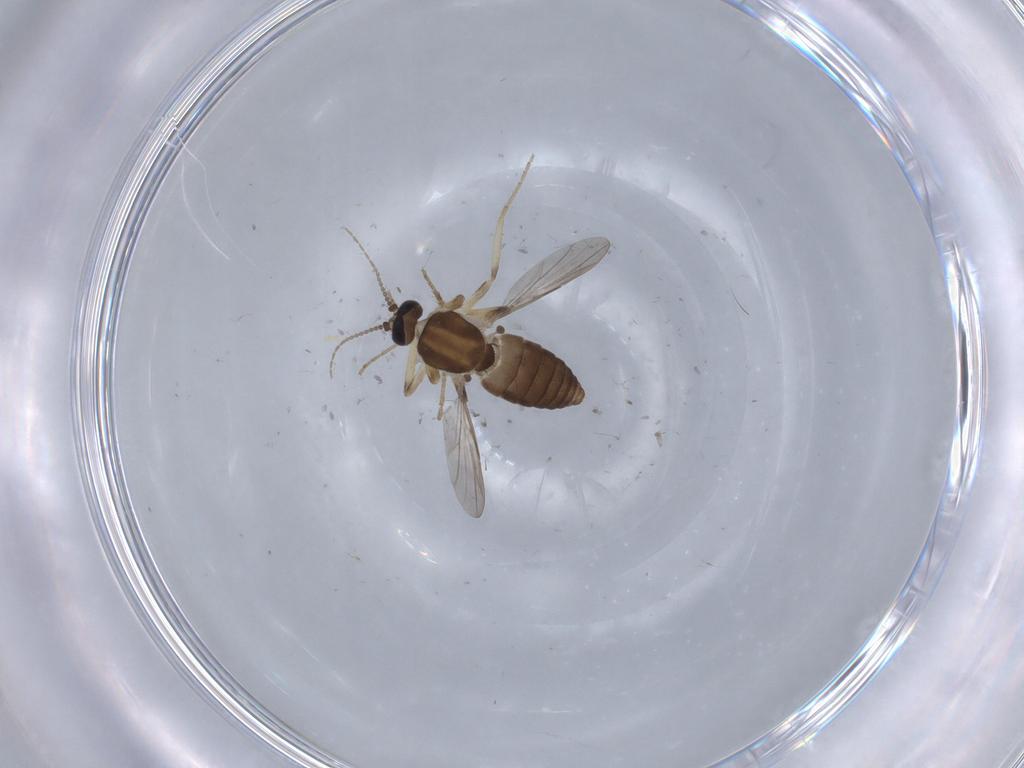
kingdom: Animalia
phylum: Arthropoda
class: Insecta
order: Diptera
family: Ceratopogonidae
